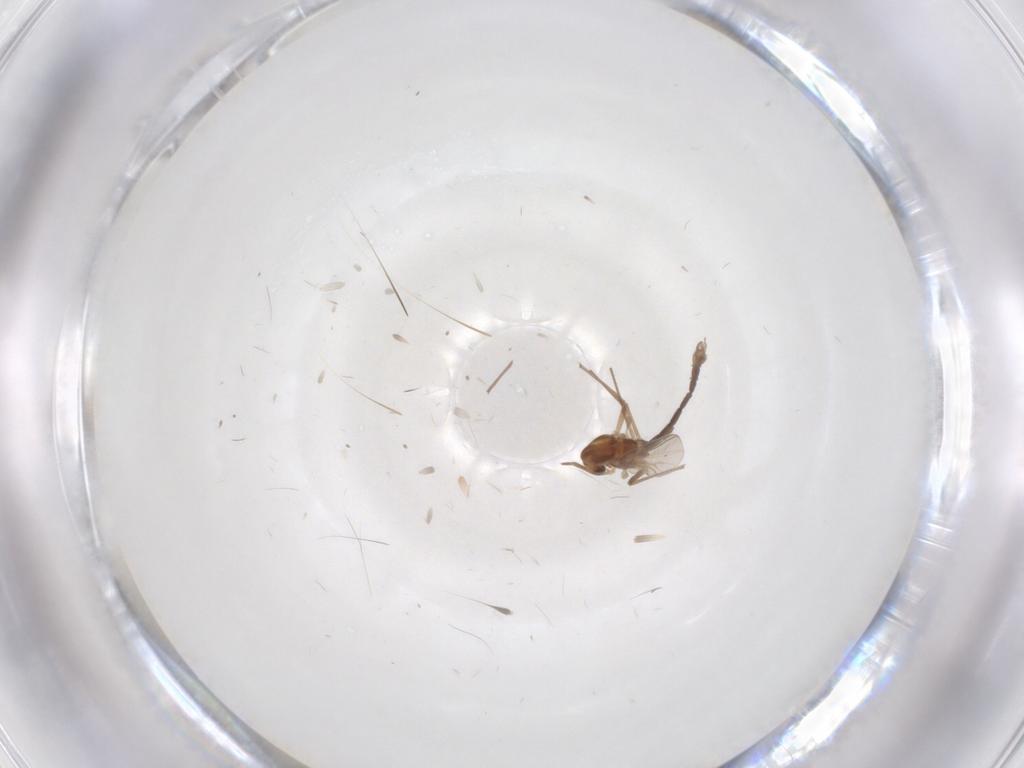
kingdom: Animalia
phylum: Arthropoda
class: Insecta
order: Diptera
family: Chironomidae
